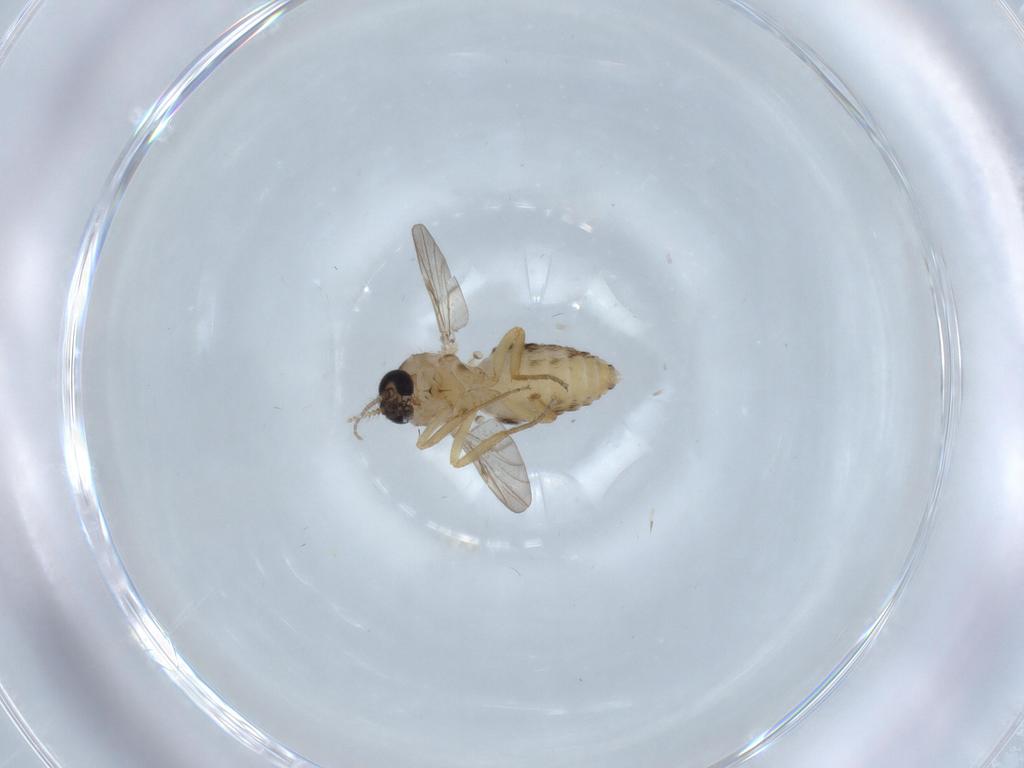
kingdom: Animalia
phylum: Arthropoda
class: Insecta
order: Diptera
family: Ceratopogonidae
